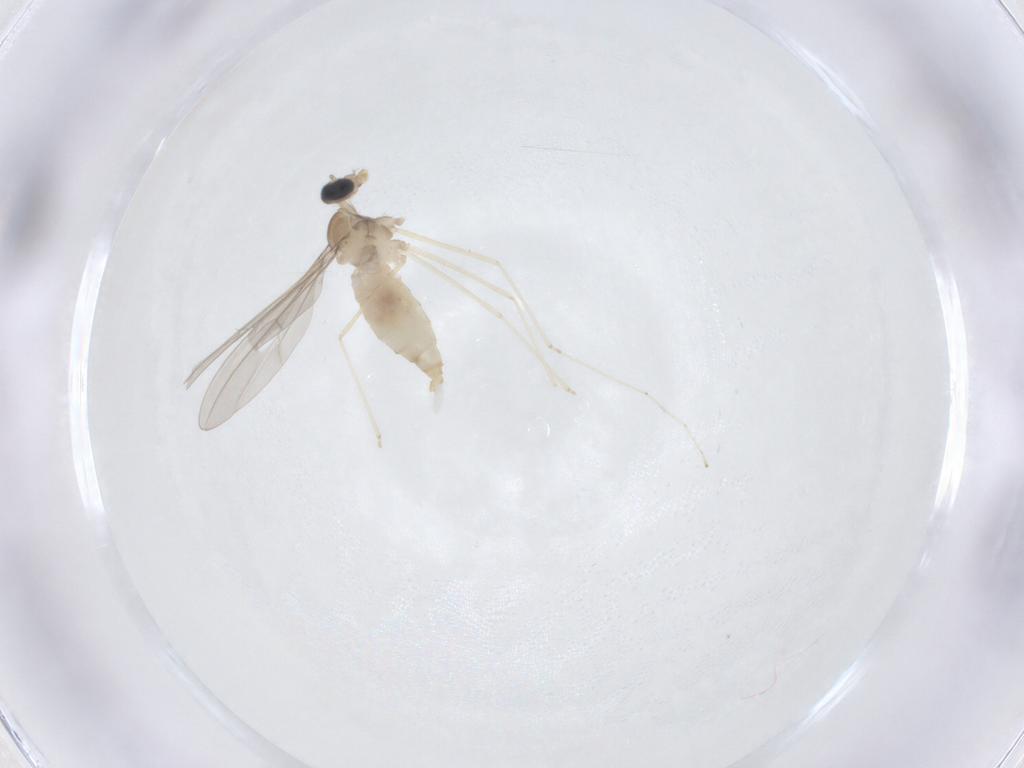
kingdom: Animalia
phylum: Arthropoda
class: Insecta
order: Diptera
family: Cecidomyiidae
